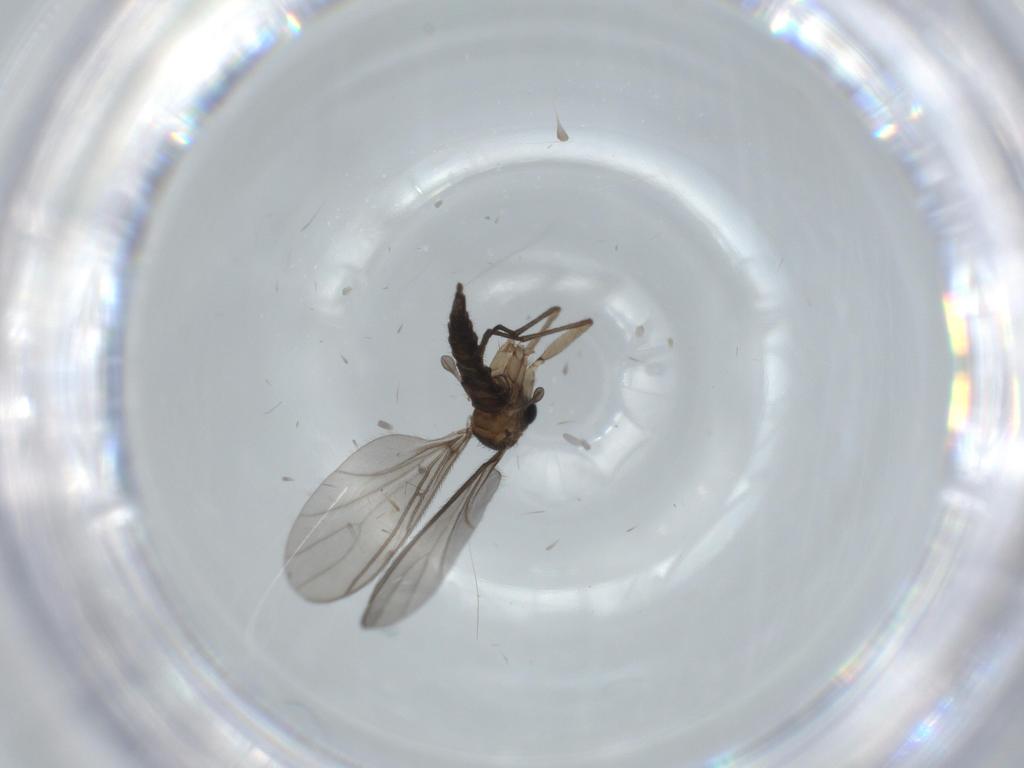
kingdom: Animalia
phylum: Arthropoda
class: Insecta
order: Diptera
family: Sciaridae
